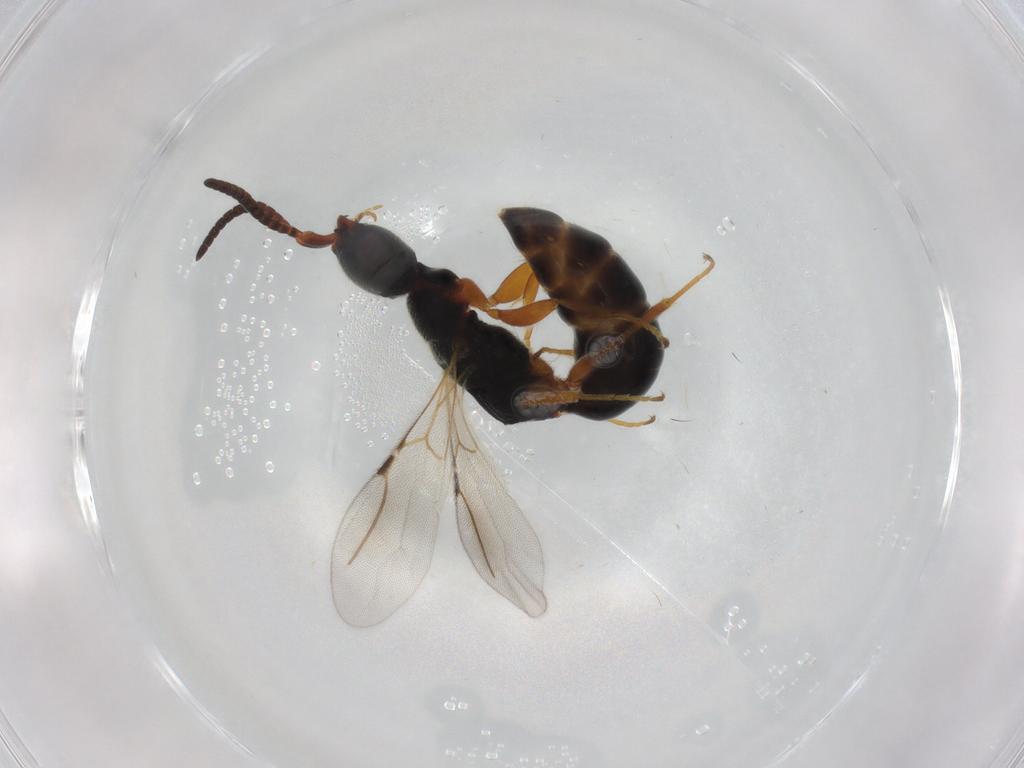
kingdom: Animalia
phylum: Arthropoda
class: Insecta
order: Hymenoptera
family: Bethylidae
